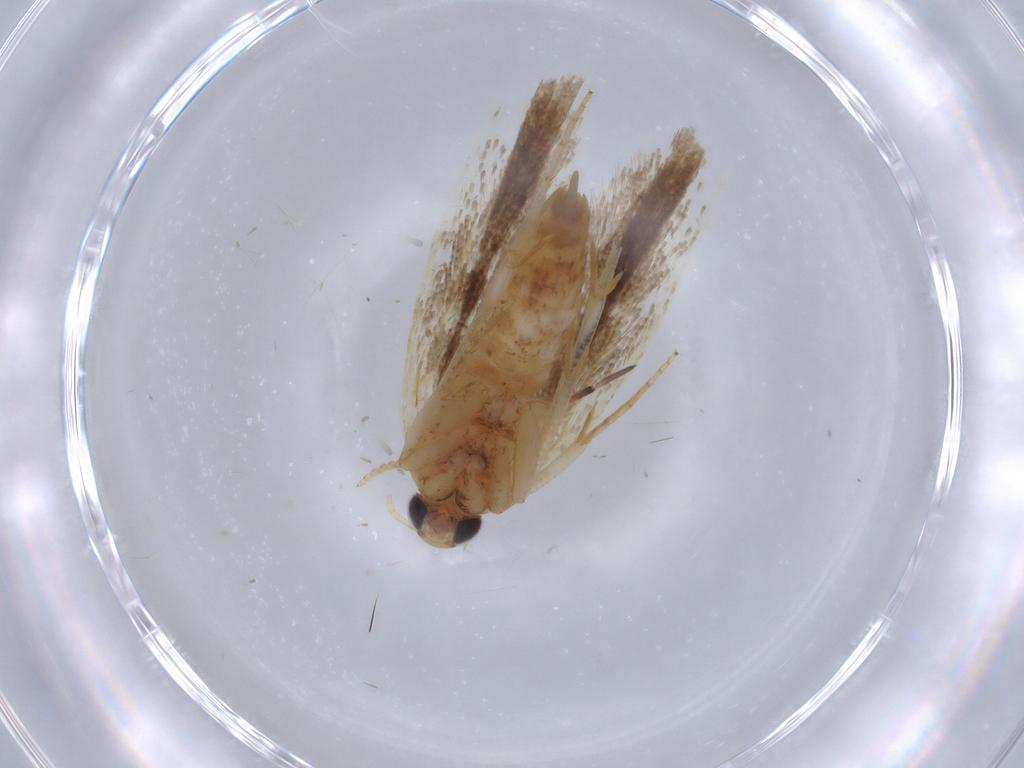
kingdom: Animalia
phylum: Arthropoda
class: Insecta
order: Lepidoptera
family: Gelechiidae
